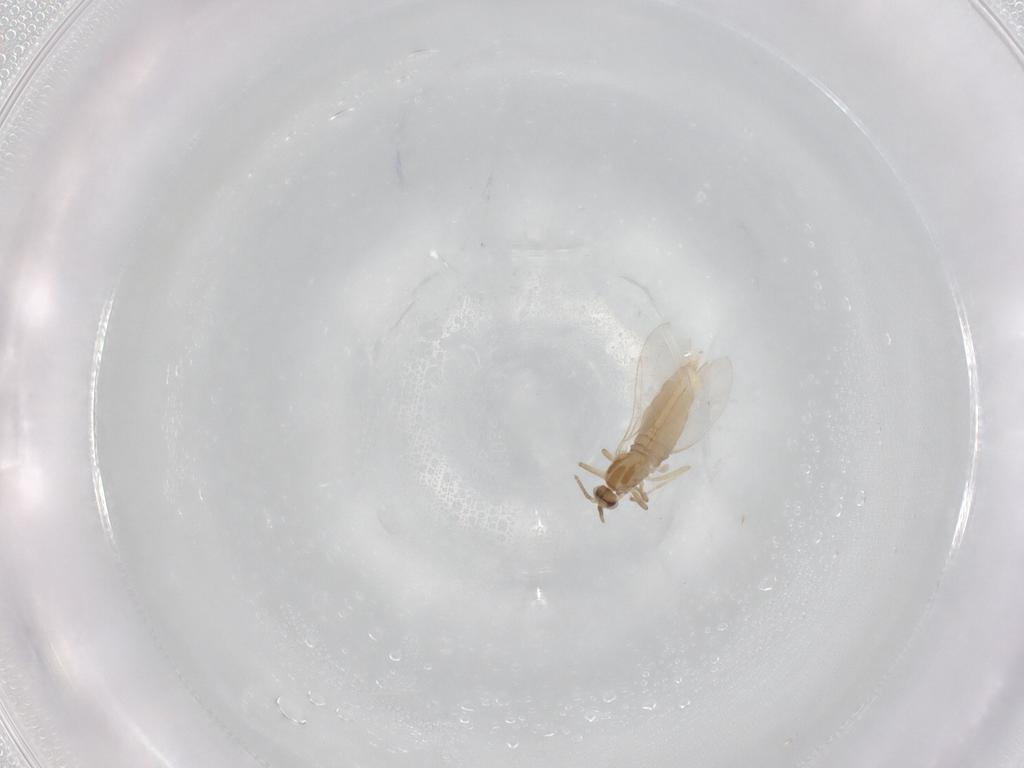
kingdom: Animalia
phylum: Arthropoda
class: Insecta
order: Diptera
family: Cecidomyiidae
